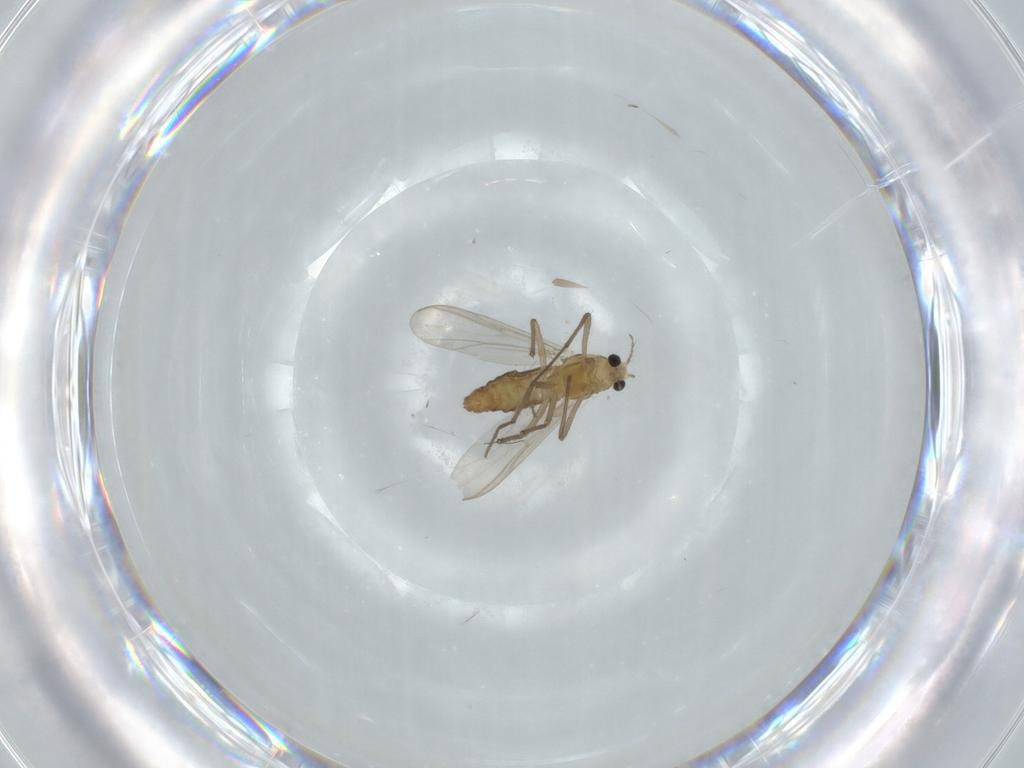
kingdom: Animalia
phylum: Arthropoda
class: Insecta
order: Diptera
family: Chironomidae
